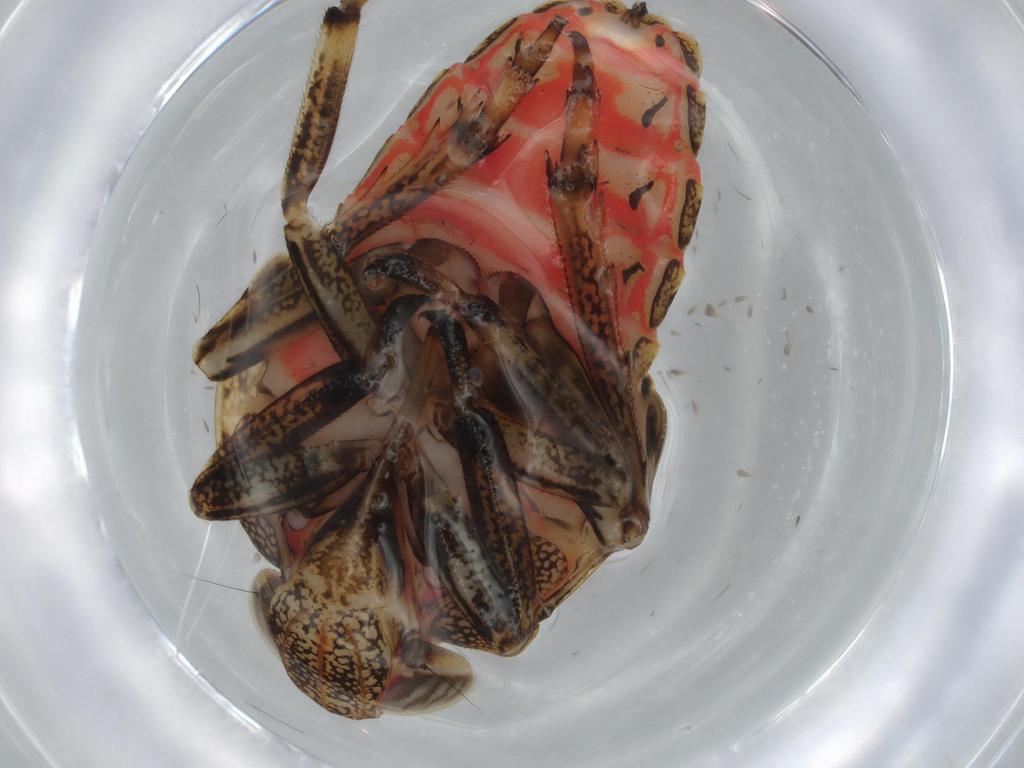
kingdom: Animalia
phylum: Arthropoda
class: Insecta
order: Hemiptera
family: Issidae
